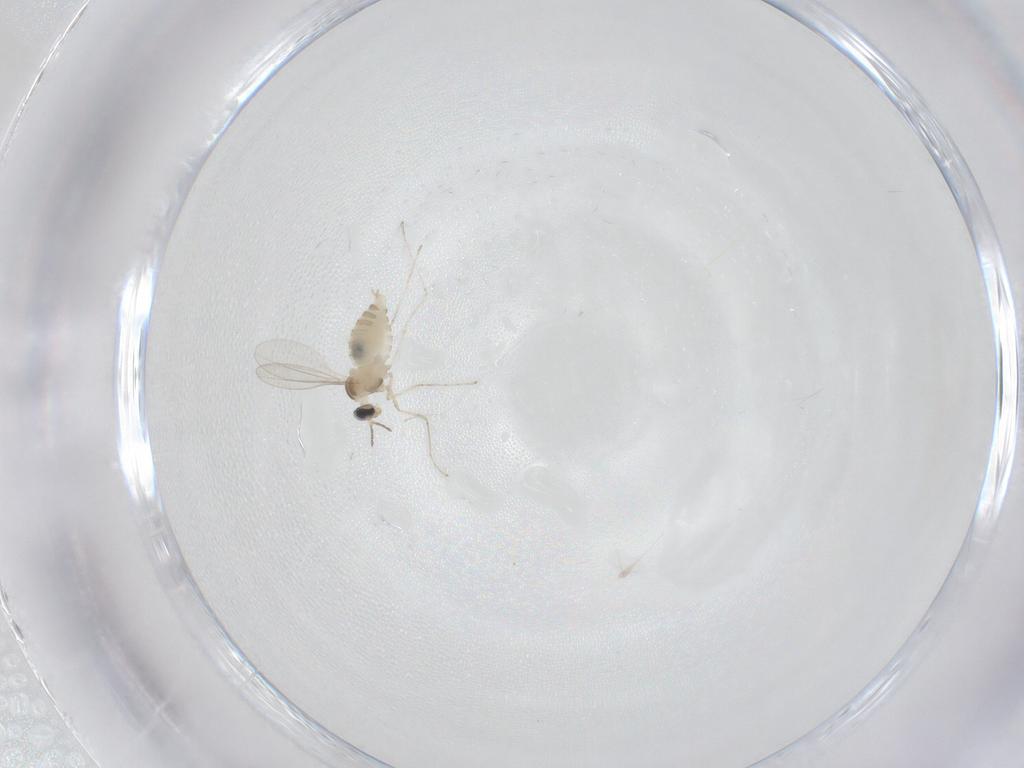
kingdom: Animalia
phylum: Arthropoda
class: Insecta
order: Diptera
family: Cecidomyiidae
